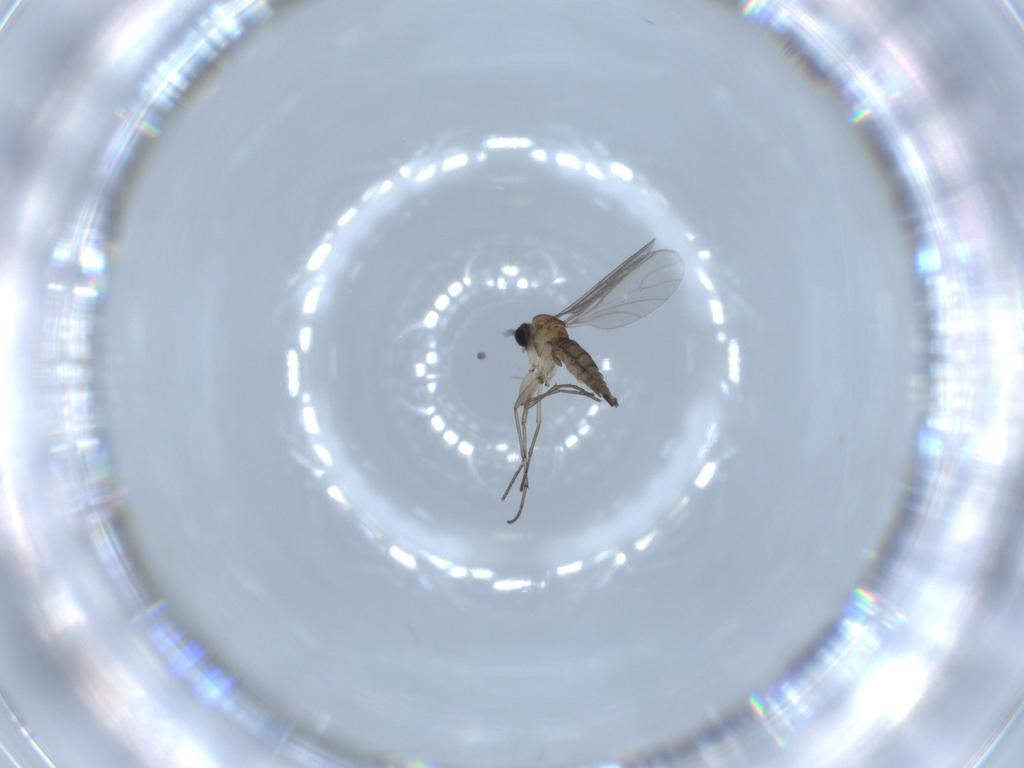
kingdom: Animalia
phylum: Arthropoda
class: Insecta
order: Diptera
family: Sciaridae
